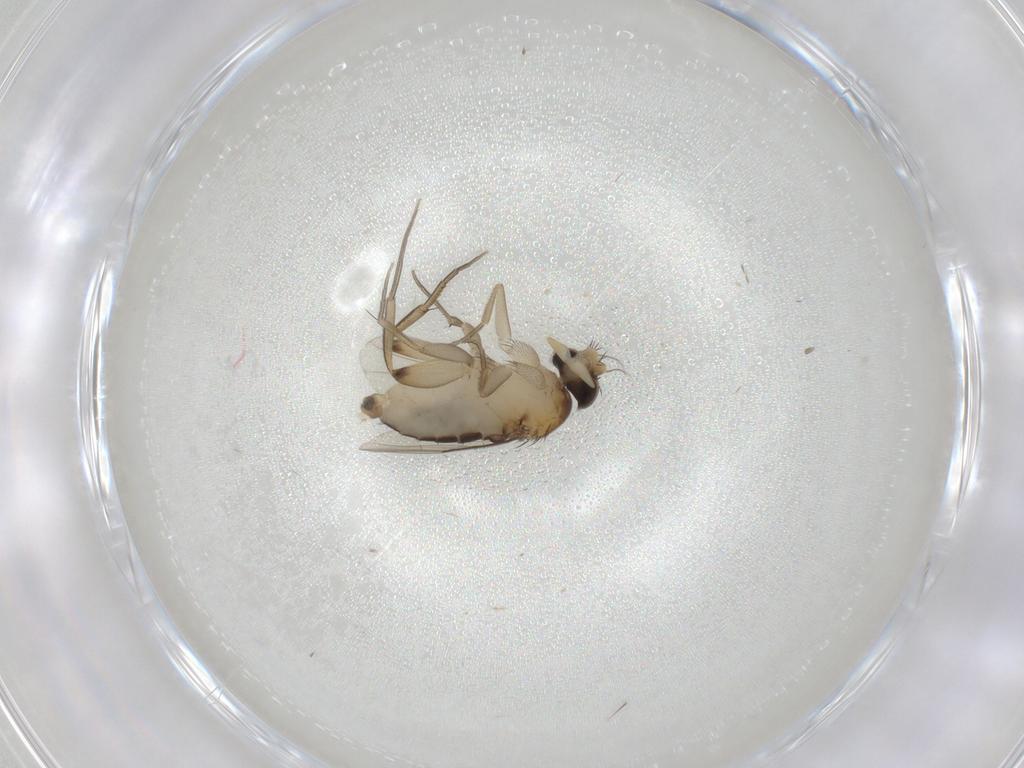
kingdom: Animalia
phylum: Arthropoda
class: Insecta
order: Diptera
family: Phoridae
